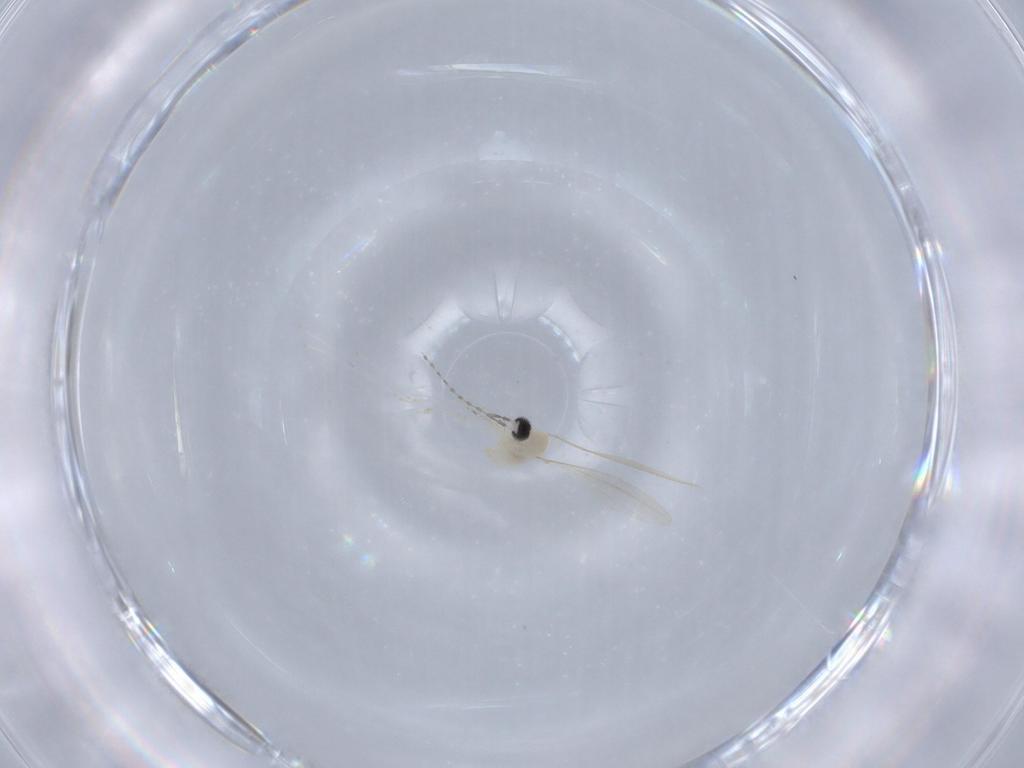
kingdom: Animalia
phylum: Arthropoda
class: Insecta
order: Diptera
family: Cecidomyiidae
